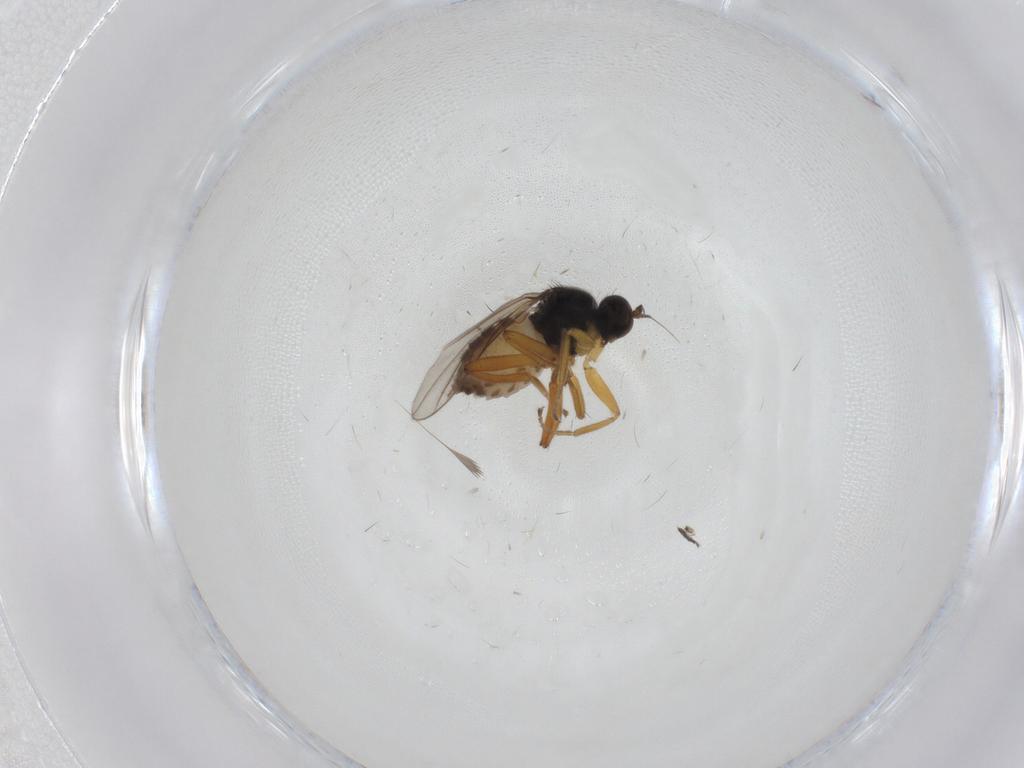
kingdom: Animalia
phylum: Arthropoda
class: Insecta
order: Diptera
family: Hybotidae
